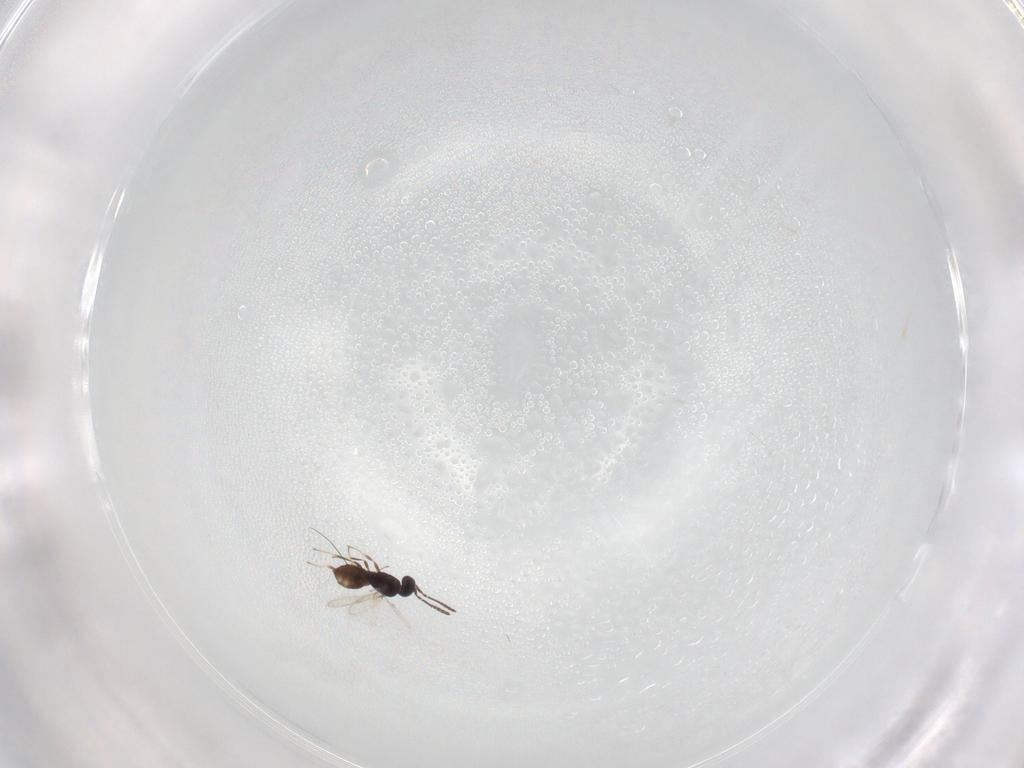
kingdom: Animalia
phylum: Arthropoda
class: Insecta
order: Hymenoptera
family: Scelionidae
